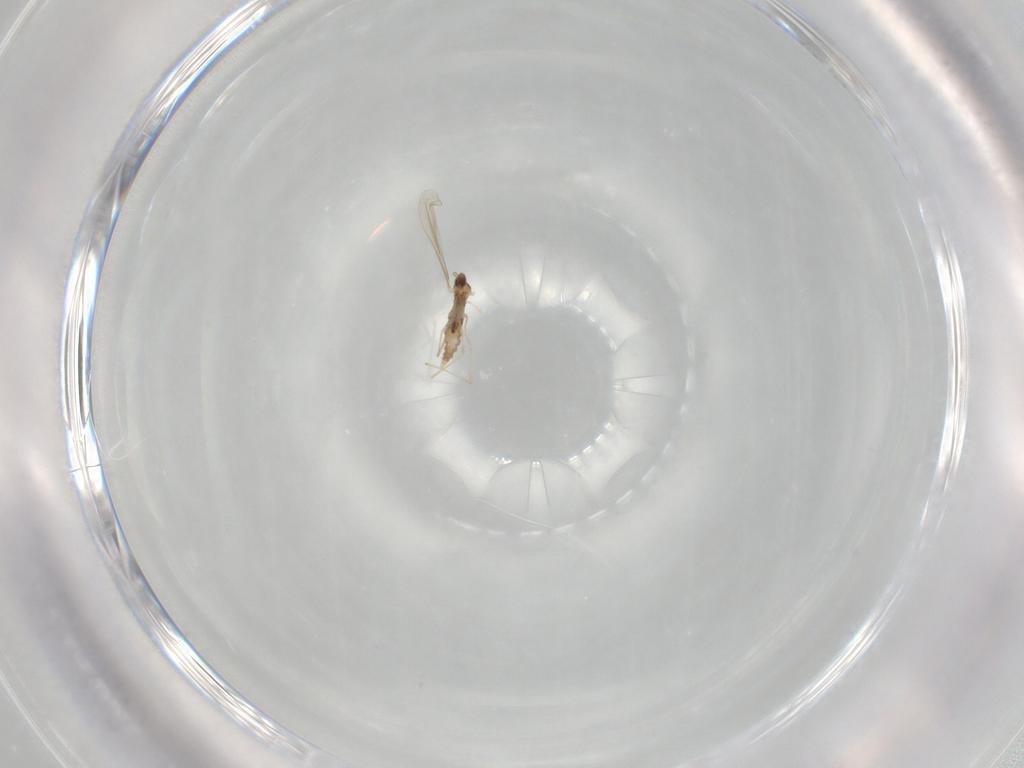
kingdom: Animalia
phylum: Arthropoda
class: Insecta
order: Diptera
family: Cecidomyiidae
